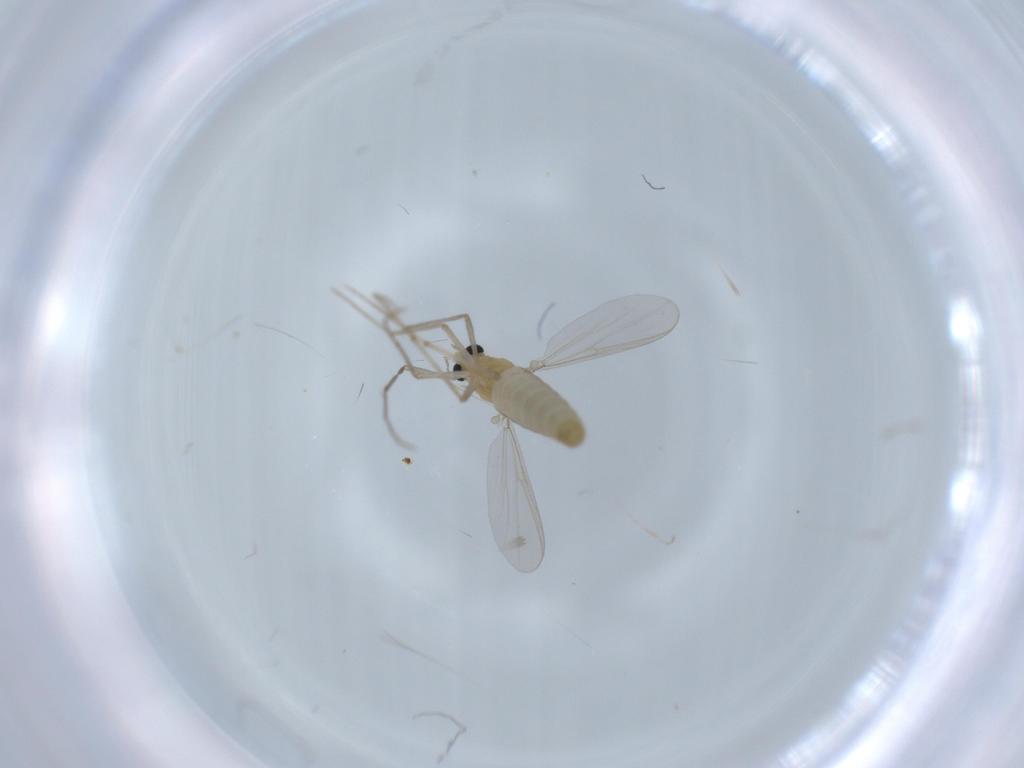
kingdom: Animalia
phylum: Arthropoda
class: Insecta
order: Diptera
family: Chironomidae
